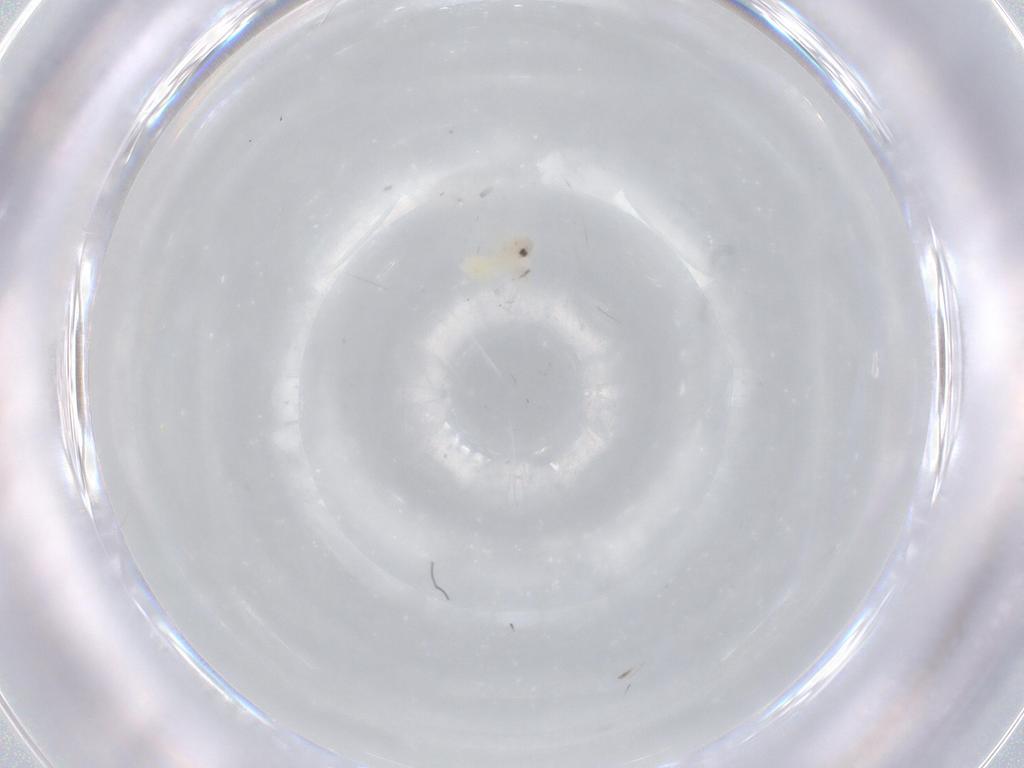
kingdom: Animalia
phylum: Arthropoda
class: Insecta
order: Hemiptera
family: Aleyrodidae
